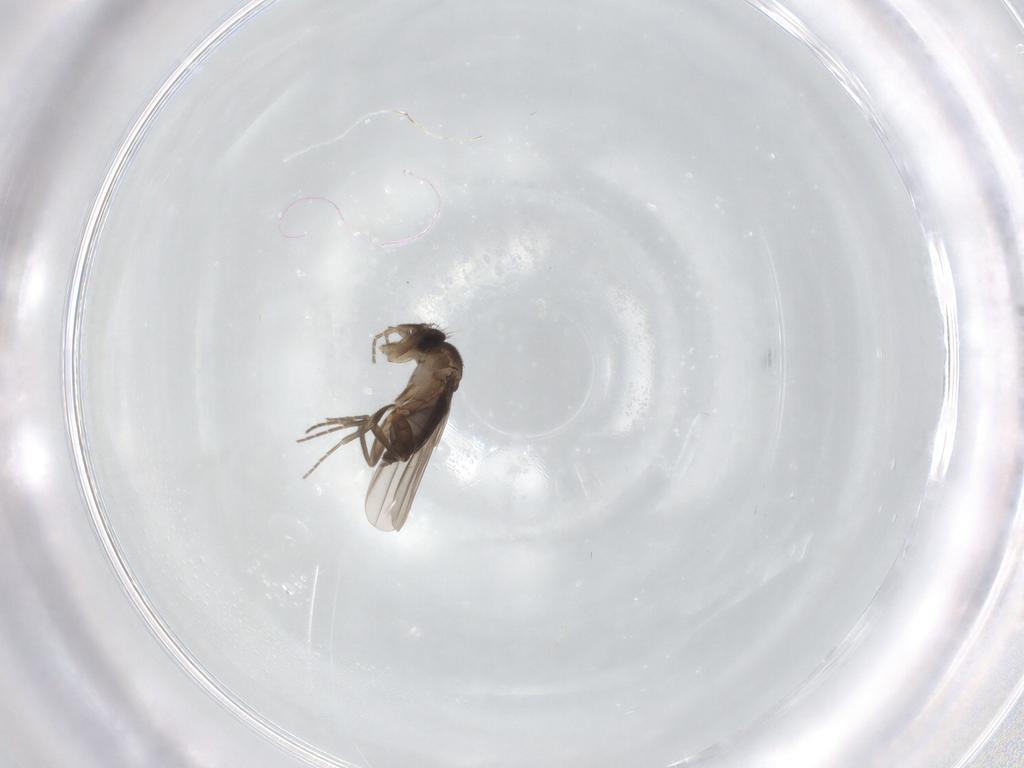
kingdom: Animalia
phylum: Arthropoda
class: Insecta
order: Diptera
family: Phoridae
